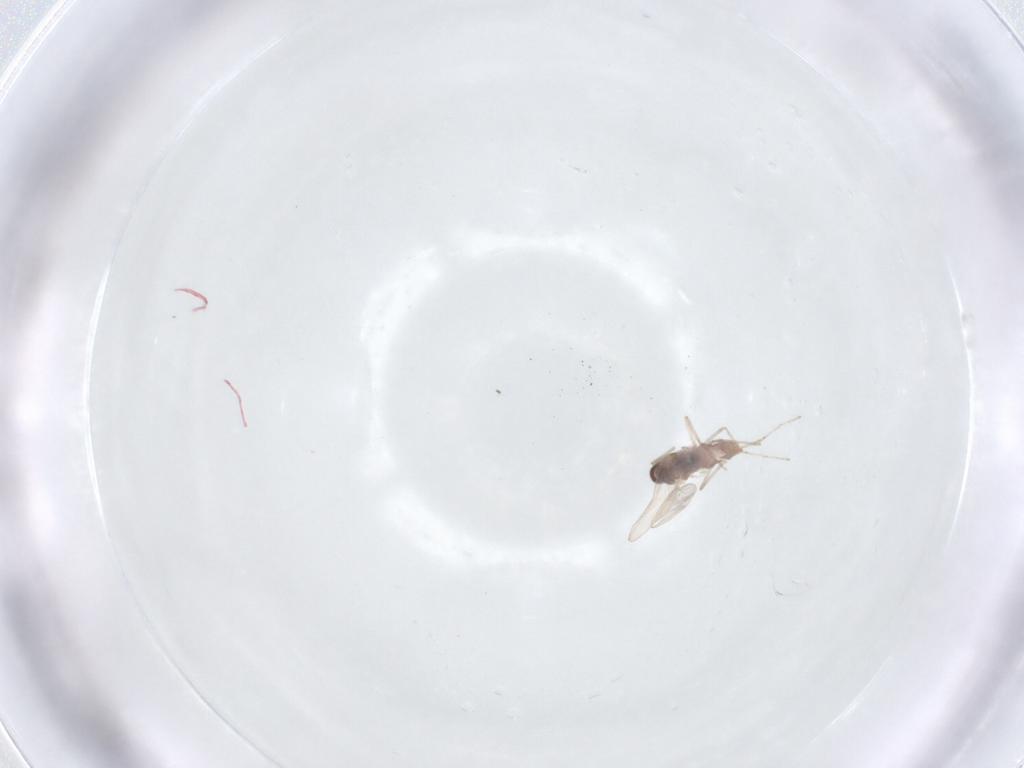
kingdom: Animalia
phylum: Arthropoda
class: Insecta
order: Diptera
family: Cecidomyiidae
